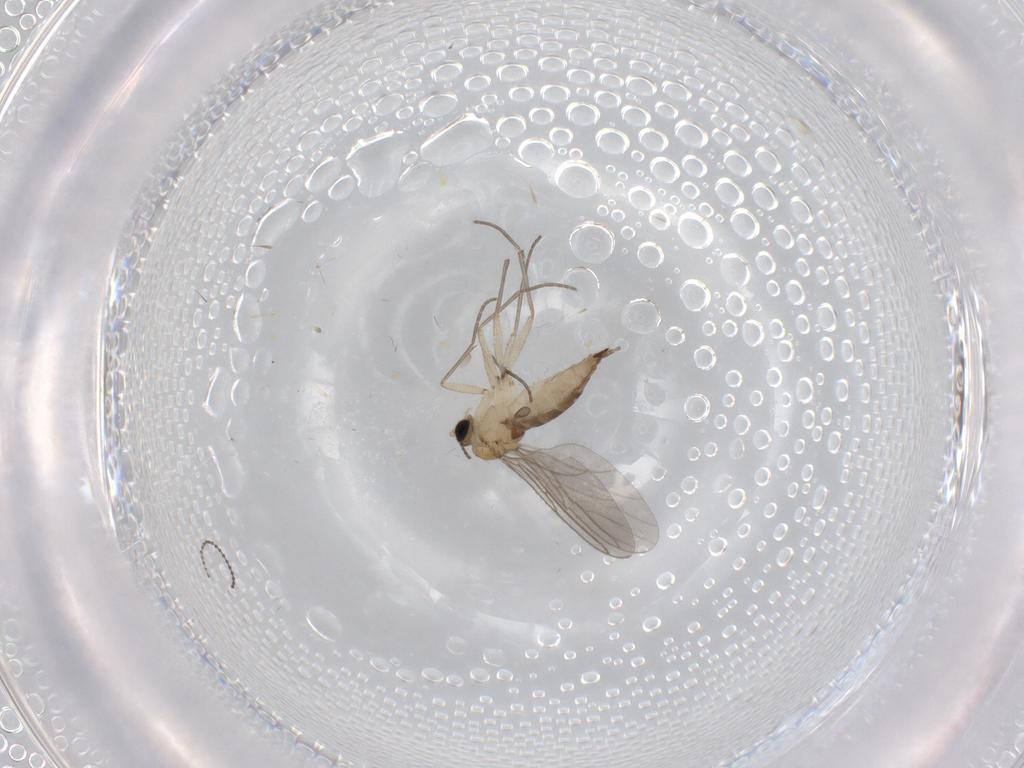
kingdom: Animalia
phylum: Arthropoda
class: Insecta
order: Diptera
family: Sciaridae
